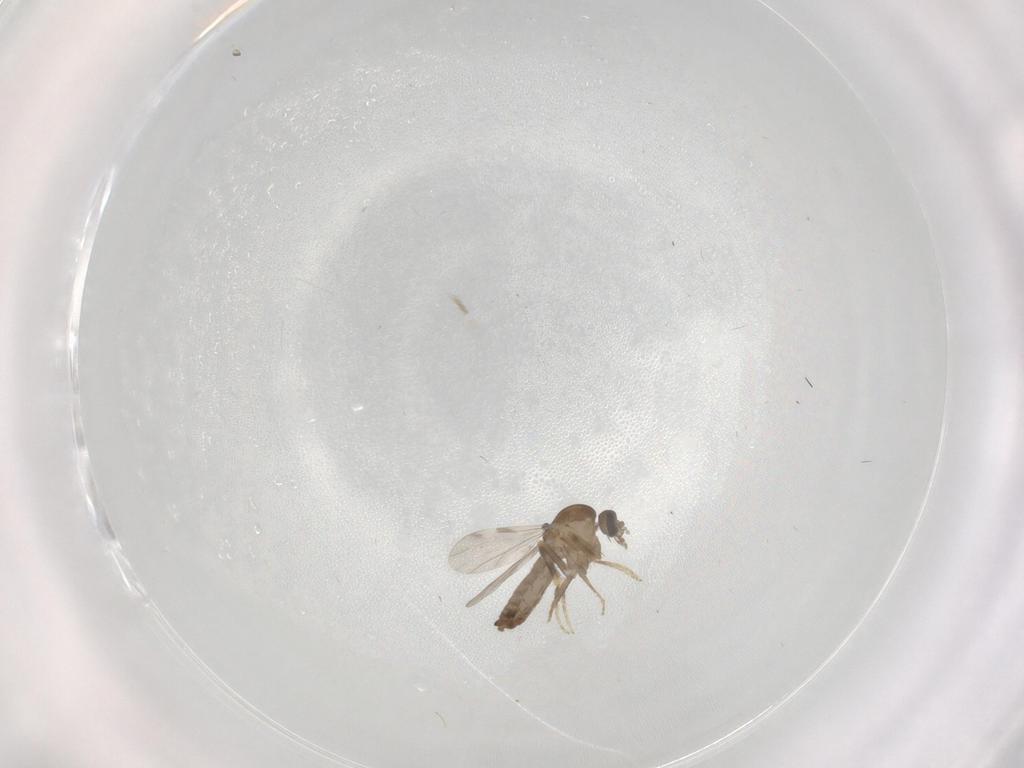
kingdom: Animalia
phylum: Arthropoda
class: Insecta
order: Diptera
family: Ceratopogonidae
